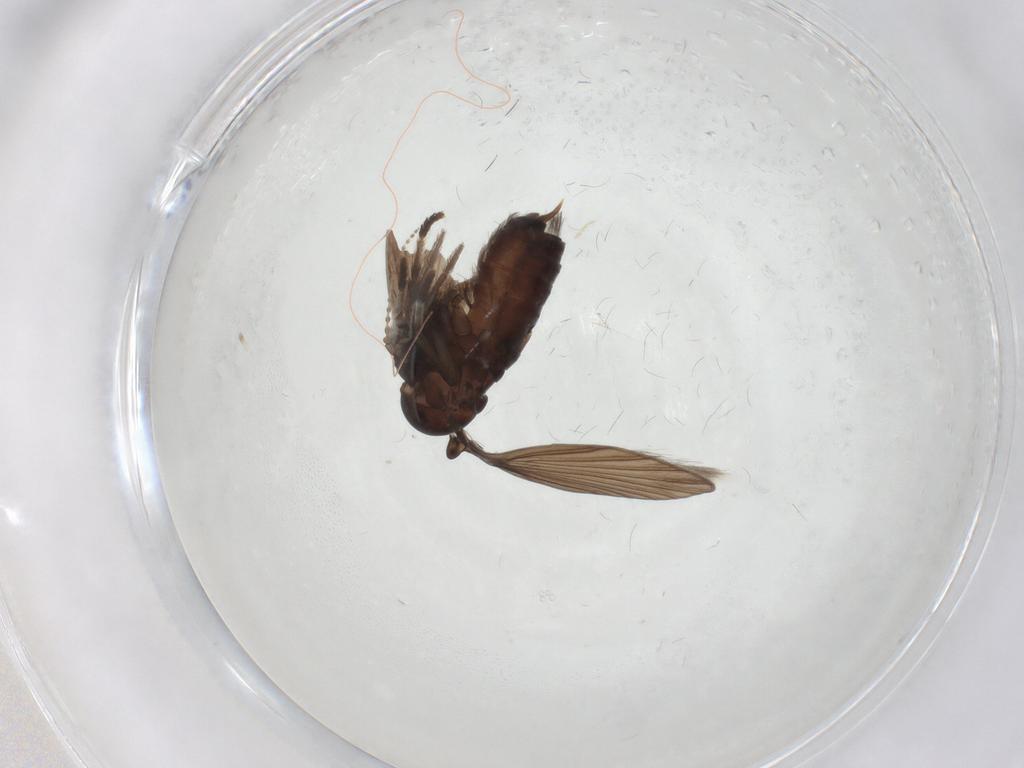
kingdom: Animalia
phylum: Arthropoda
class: Insecta
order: Diptera
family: Psychodidae
